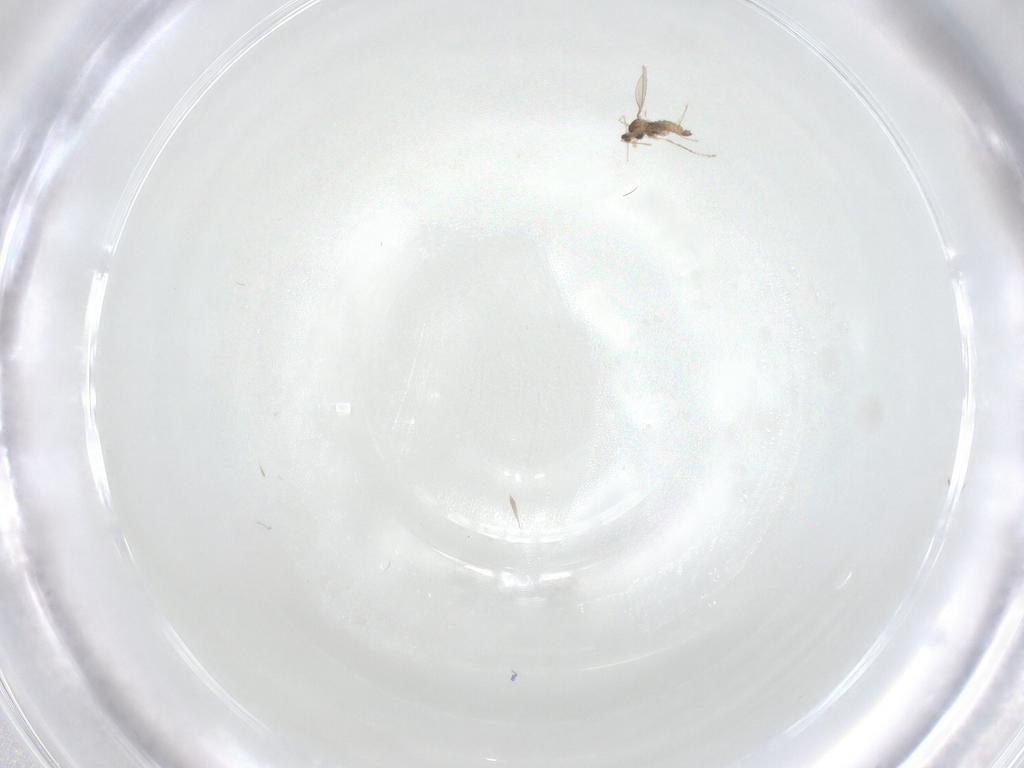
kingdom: Animalia
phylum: Arthropoda
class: Insecta
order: Diptera
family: Cecidomyiidae
